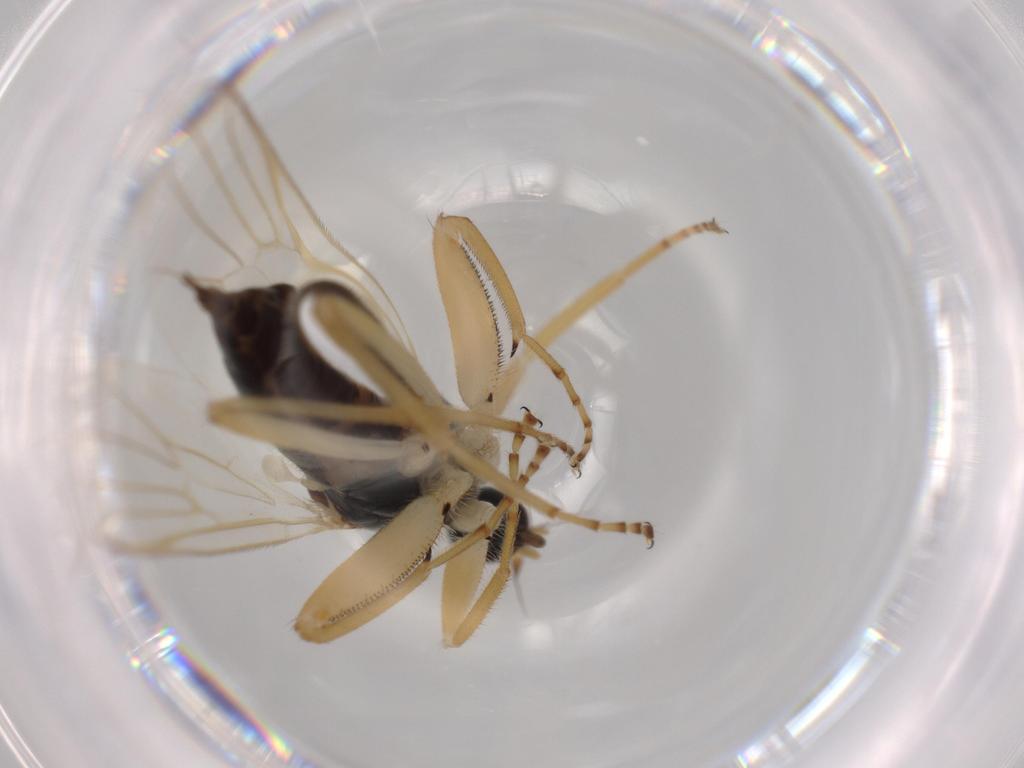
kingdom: Animalia
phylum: Arthropoda
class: Insecta
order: Diptera
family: Hybotidae
